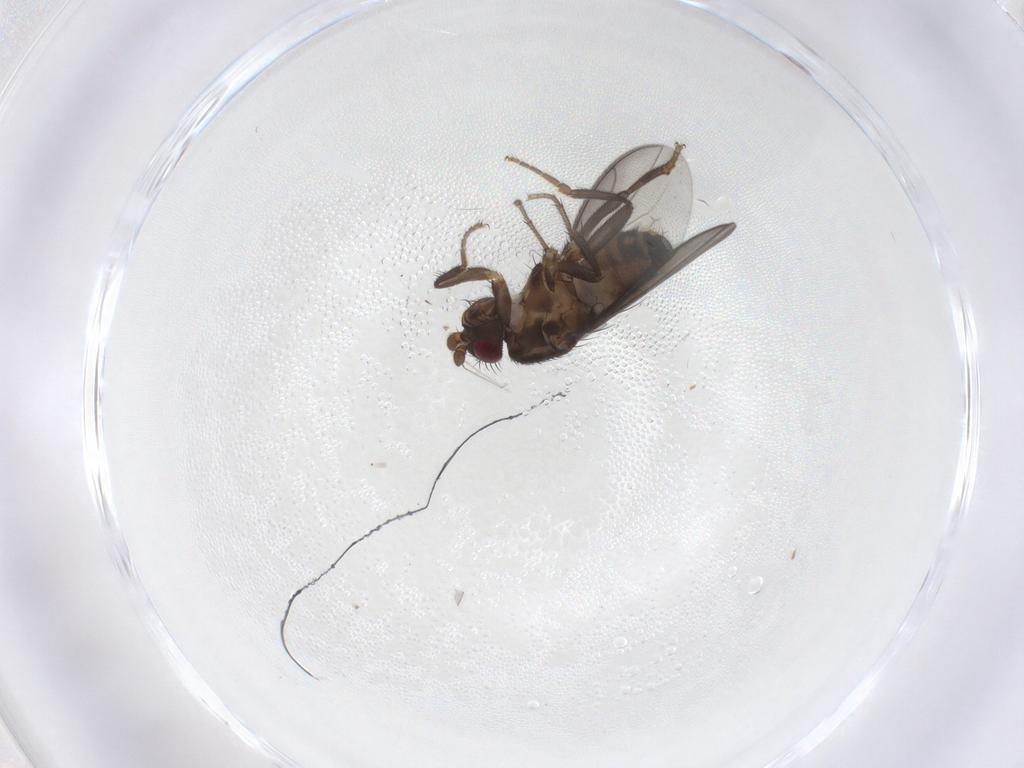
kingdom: Animalia
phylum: Arthropoda
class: Insecta
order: Diptera
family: Sphaeroceridae
